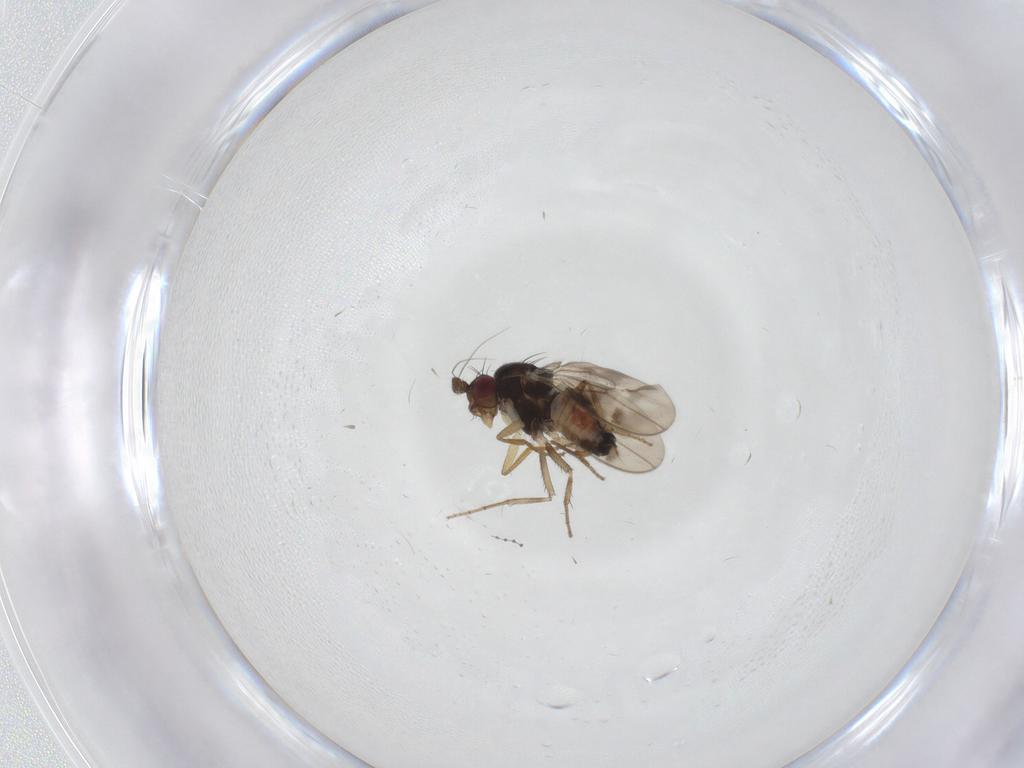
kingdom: Animalia
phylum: Arthropoda
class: Insecta
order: Diptera
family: Sphaeroceridae
